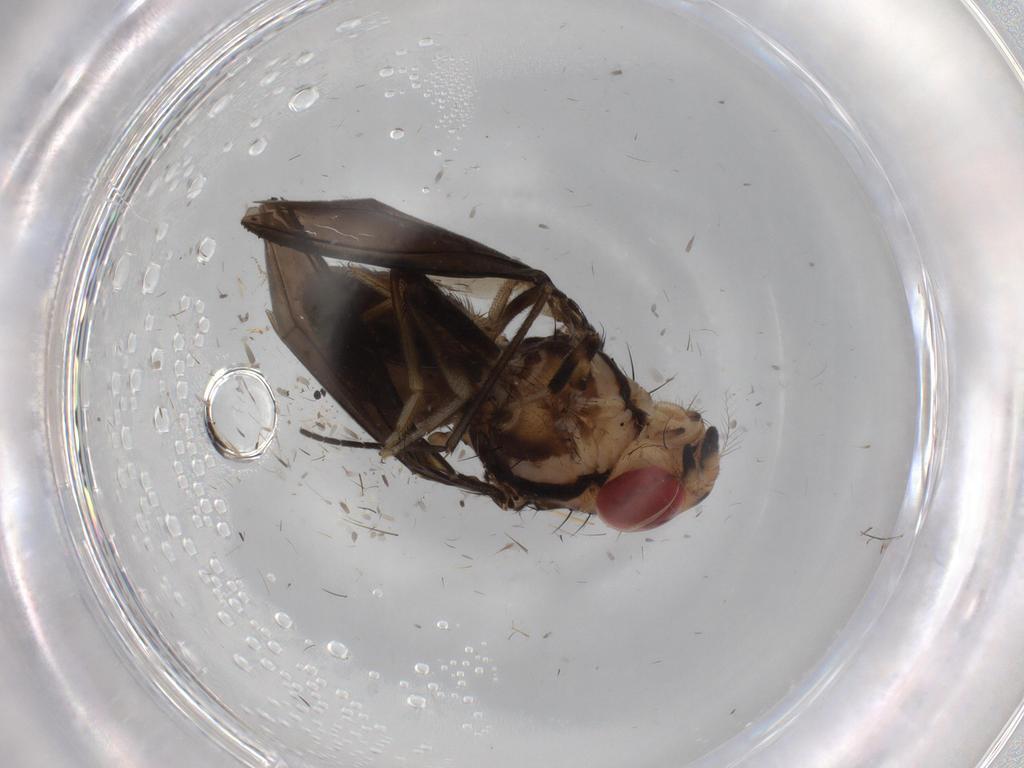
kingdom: Animalia
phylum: Arthropoda
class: Insecta
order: Diptera
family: Drosophilidae
